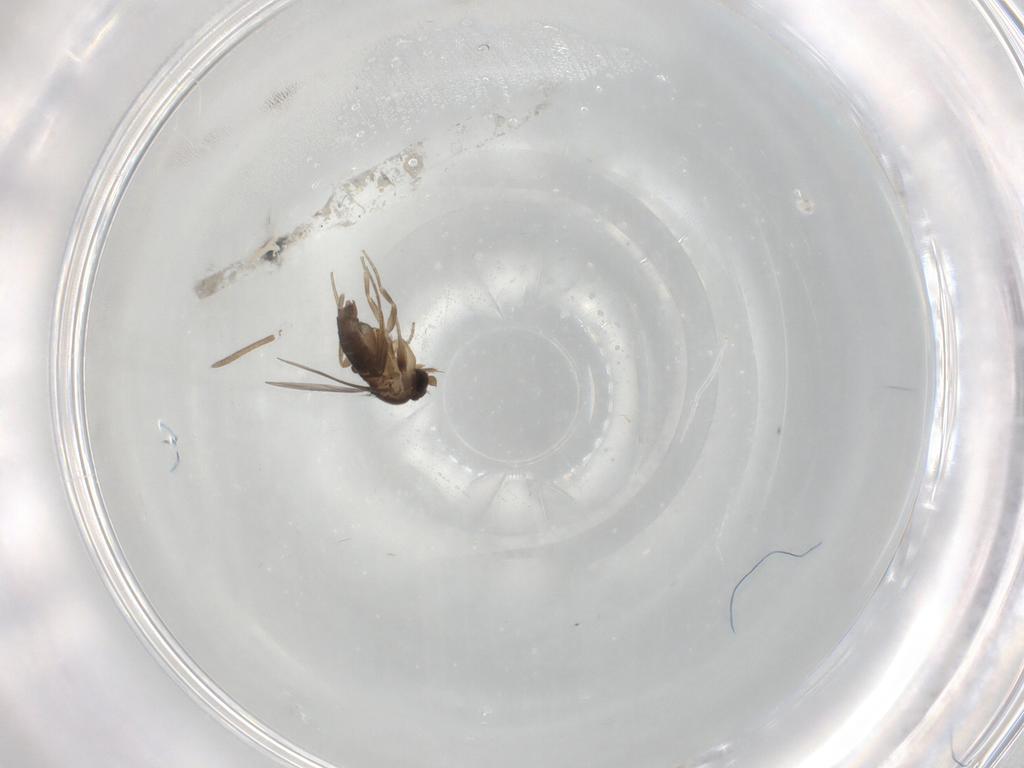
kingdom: Animalia
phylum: Arthropoda
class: Insecta
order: Diptera
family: Phoridae
